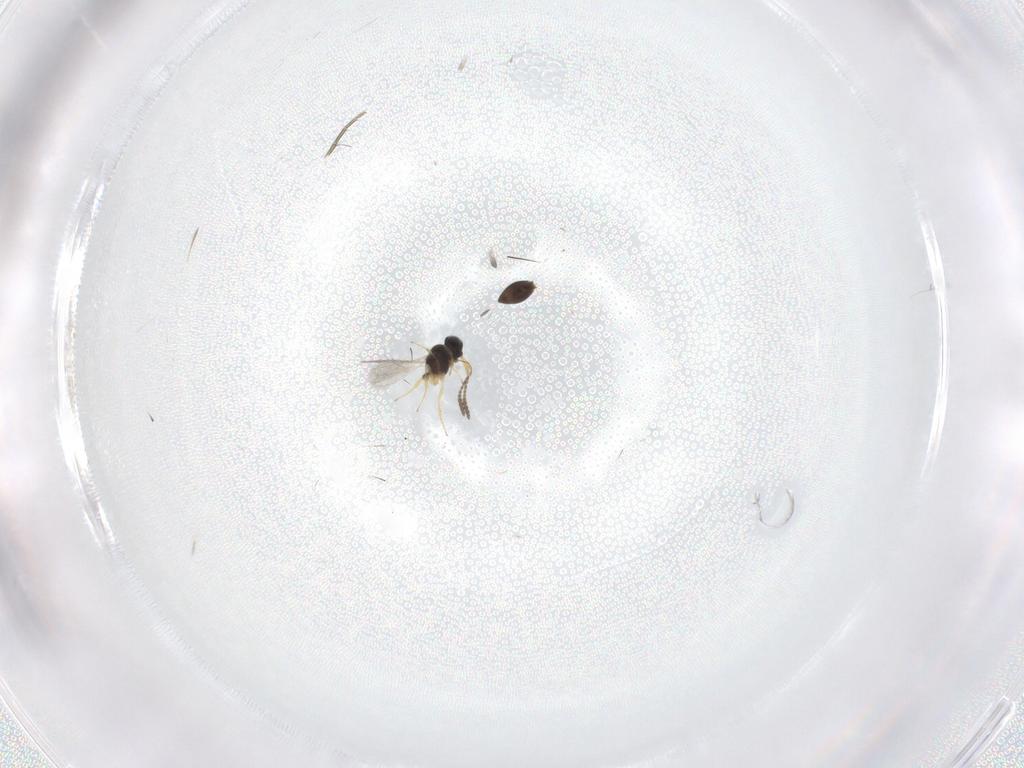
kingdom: Animalia
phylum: Arthropoda
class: Insecta
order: Hymenoptera
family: Scelionidae
